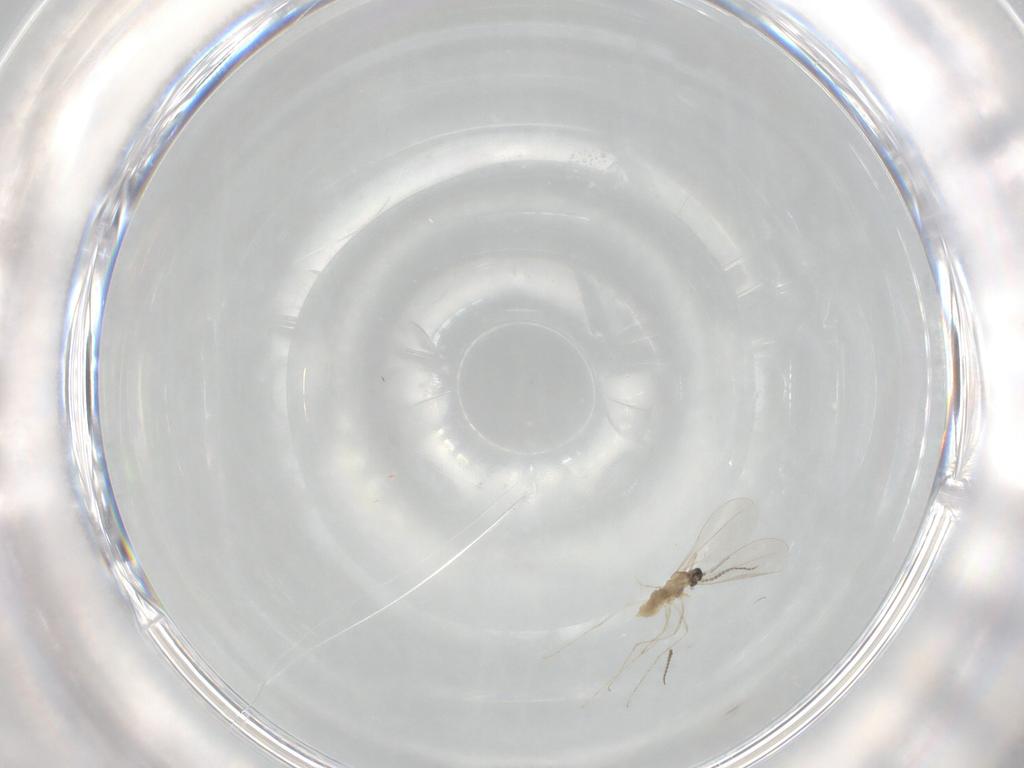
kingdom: Animalia
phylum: Arthropoda
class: Insecta
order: Diptera
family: Cecidomyiidae
